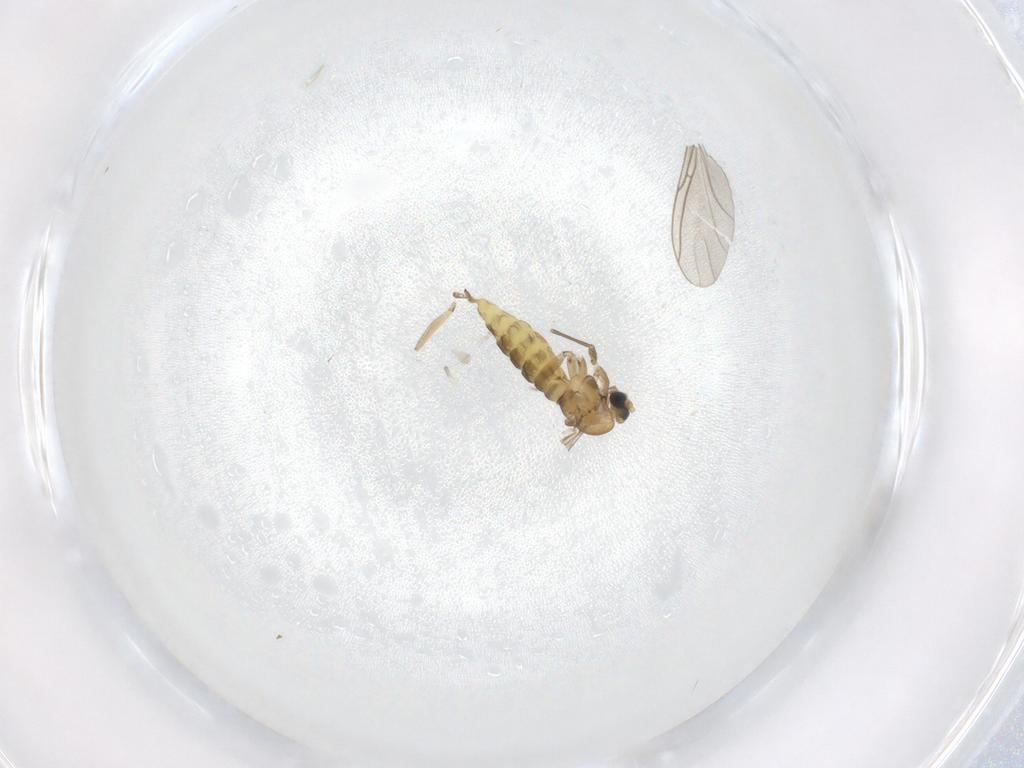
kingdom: Animalia
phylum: Arthropoda
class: Insecta
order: Diptera
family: Sciaridae
